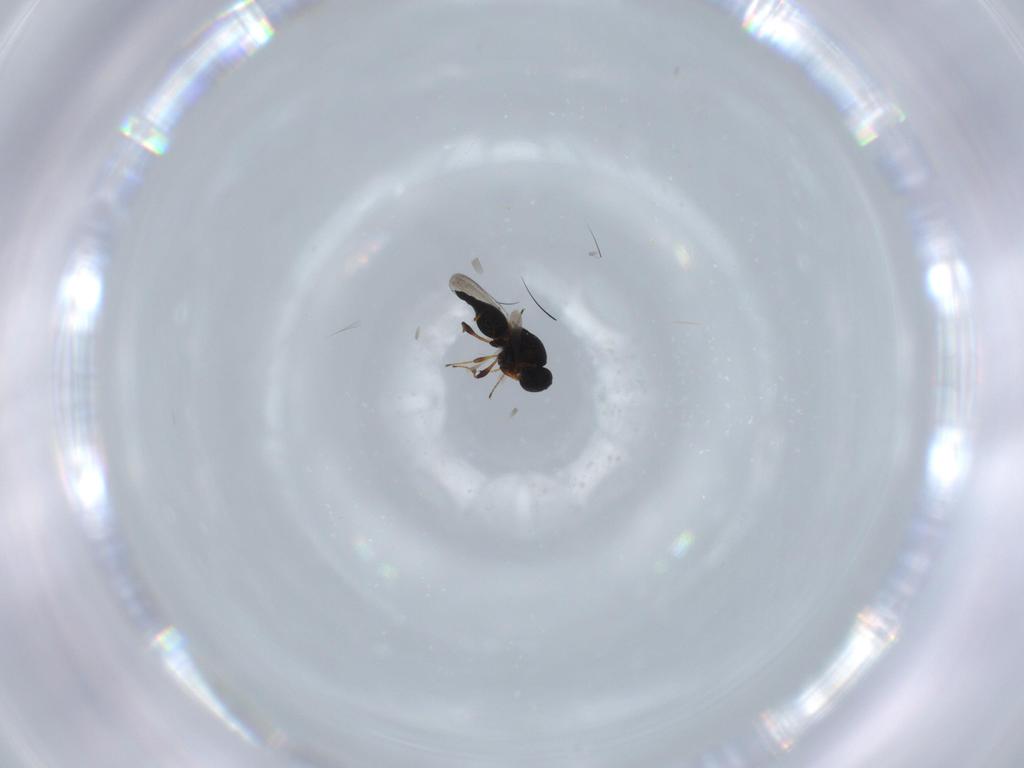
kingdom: Animalia
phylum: Arthropoda
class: Insecta
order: Hymenoptera
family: Platygastridae
